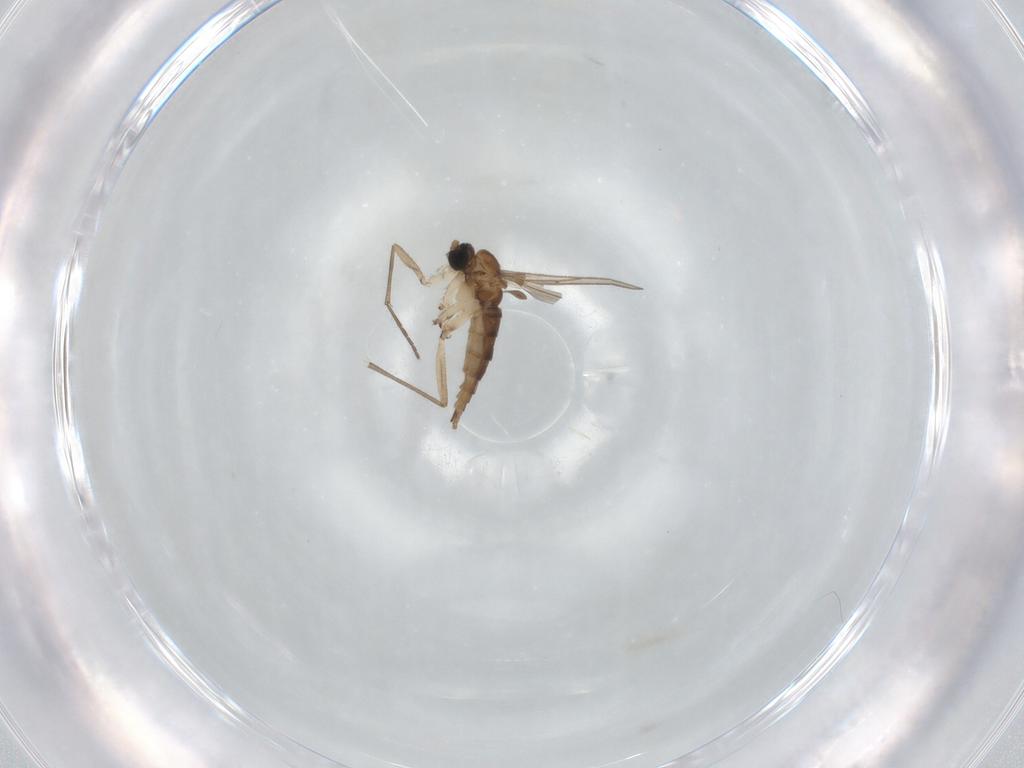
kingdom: Animalia
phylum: Arthropoda
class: Insecta
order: Diptera
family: Sciaridae
